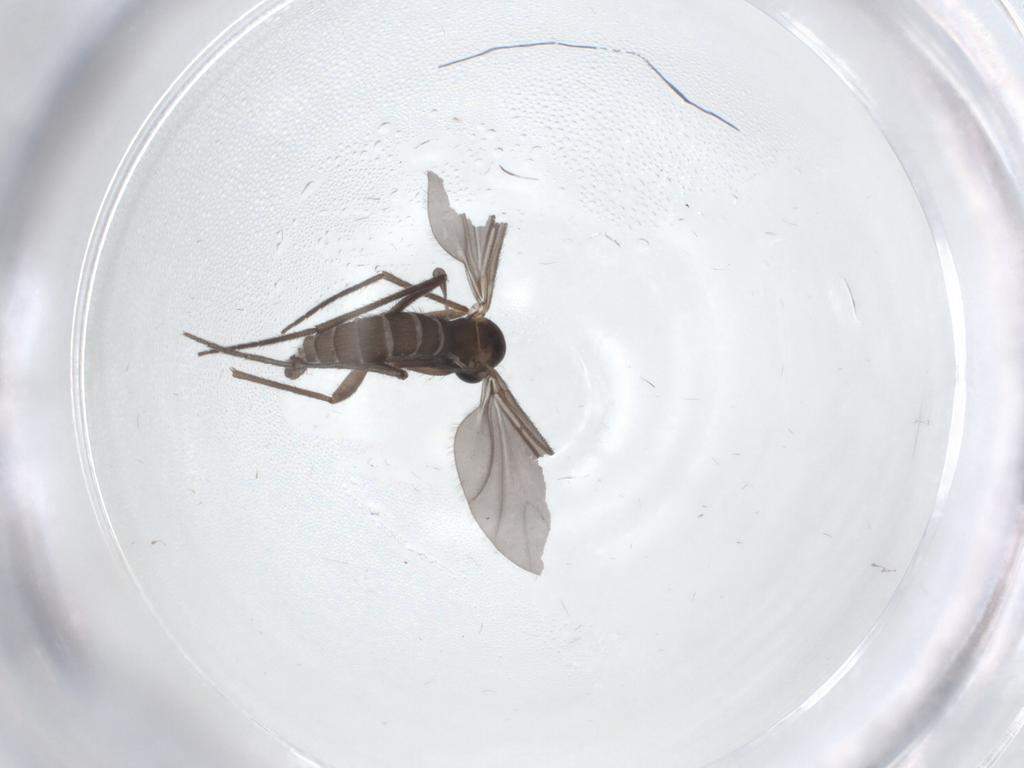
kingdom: Animalia
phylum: Arthropoda
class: Insecta
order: Diptera
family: Sciaridae
